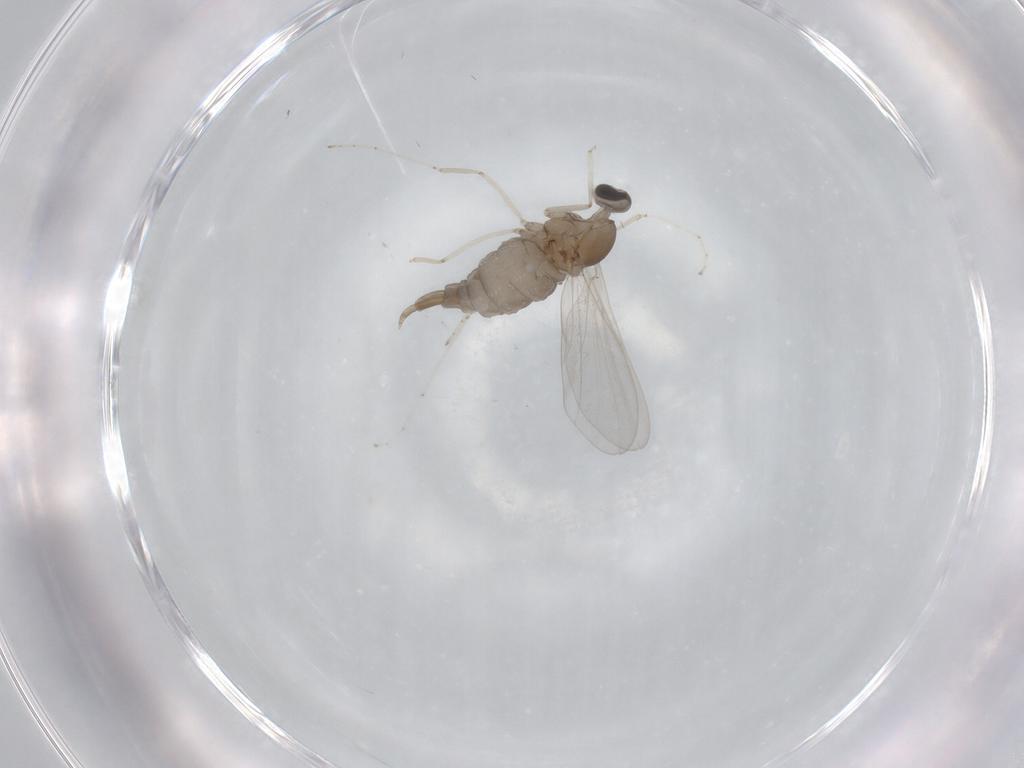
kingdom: Animalia
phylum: Arthropoda
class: Insecta
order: Diptera
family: Cecidomyiidae
